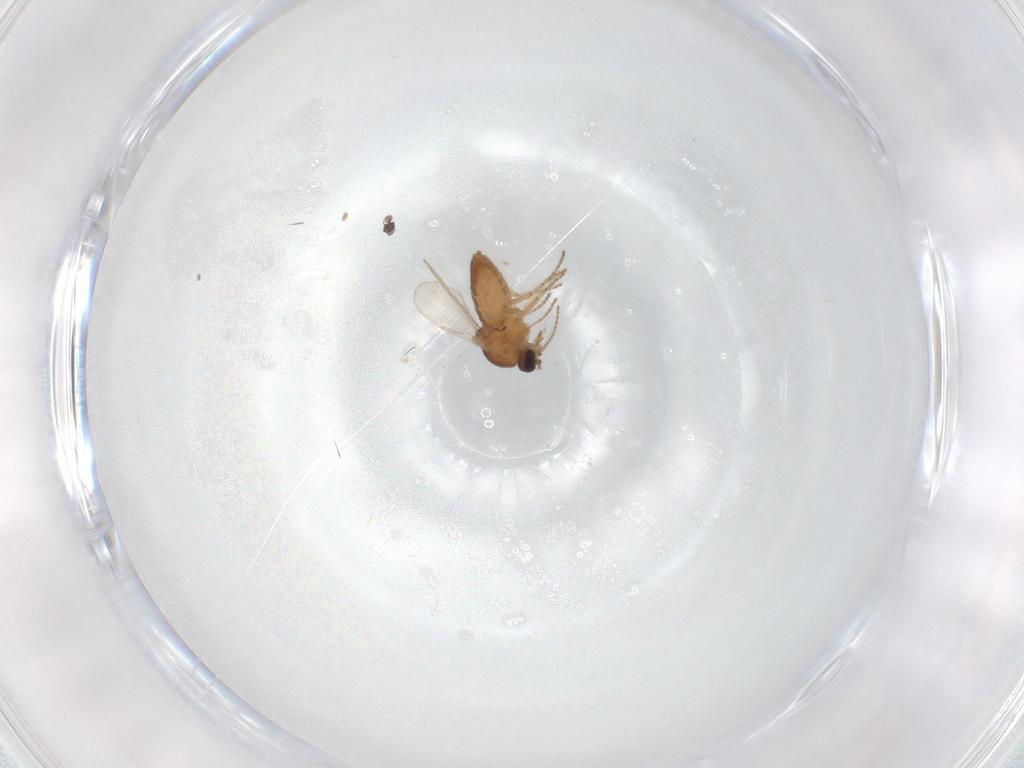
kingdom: Animalia
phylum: Arthropoda
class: Insecta
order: Diptera
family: Ceratopogonidae
